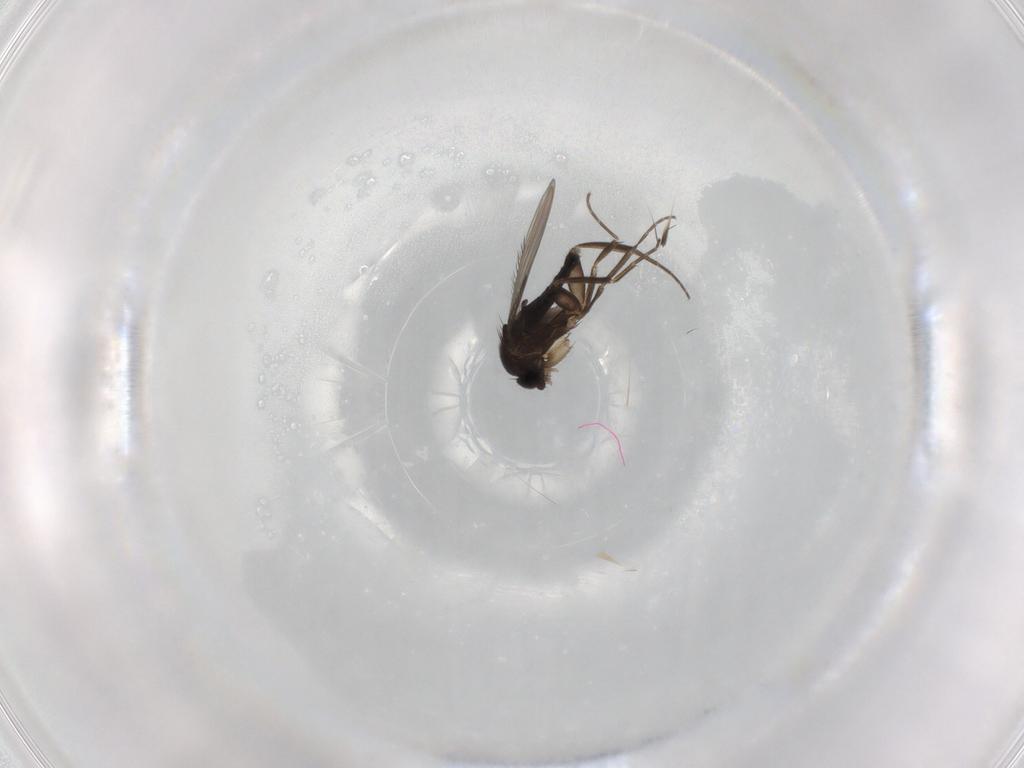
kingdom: Animalia
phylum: Arthropoda
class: Insecta
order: Diptera
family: Phoridae
